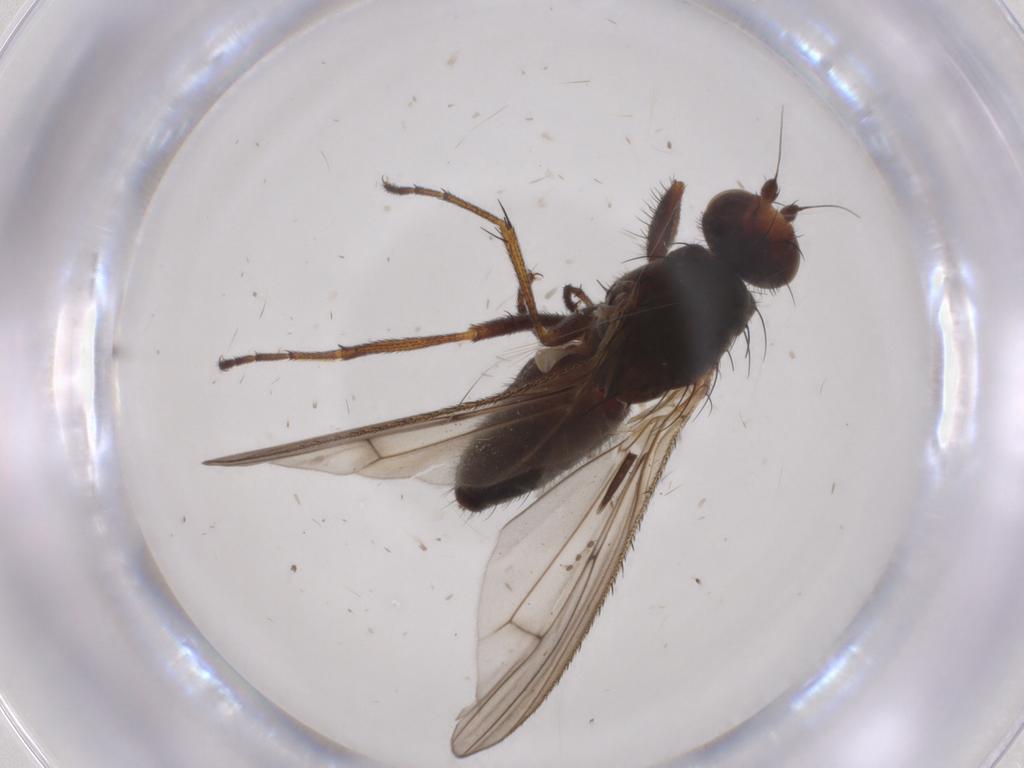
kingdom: Animalia
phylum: Arthropoda
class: Insecta
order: Diptera
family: Heleomyzidae
